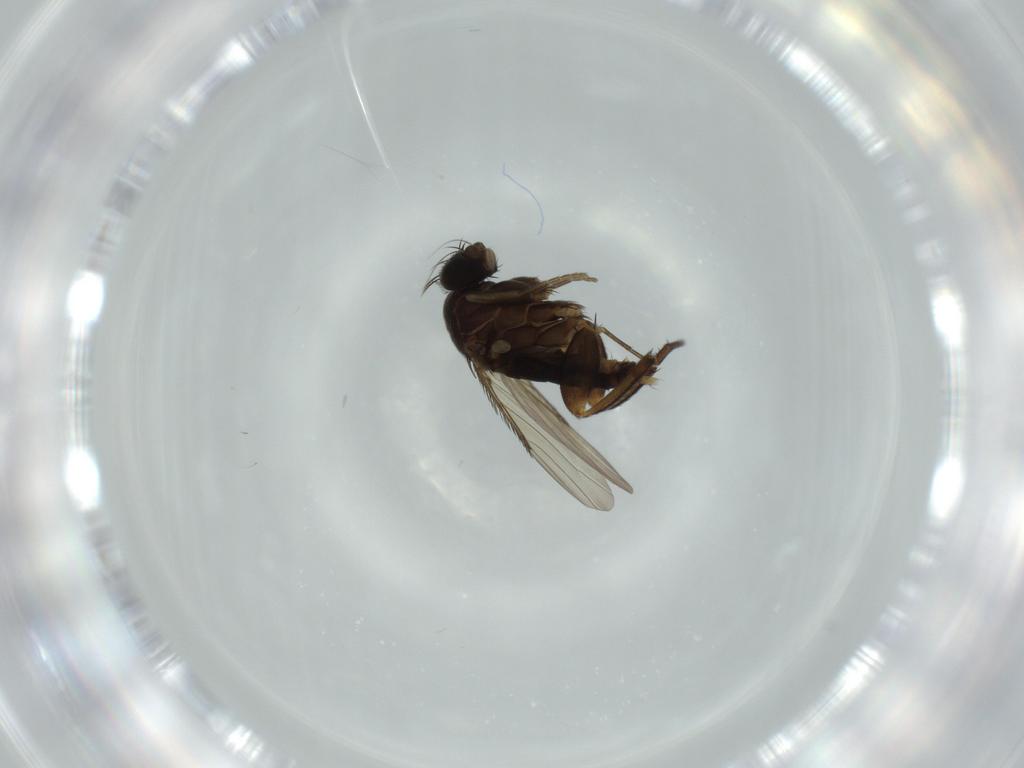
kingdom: Animalia
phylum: Arthropoda
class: Insecta
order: Diptera
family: Phoridae
